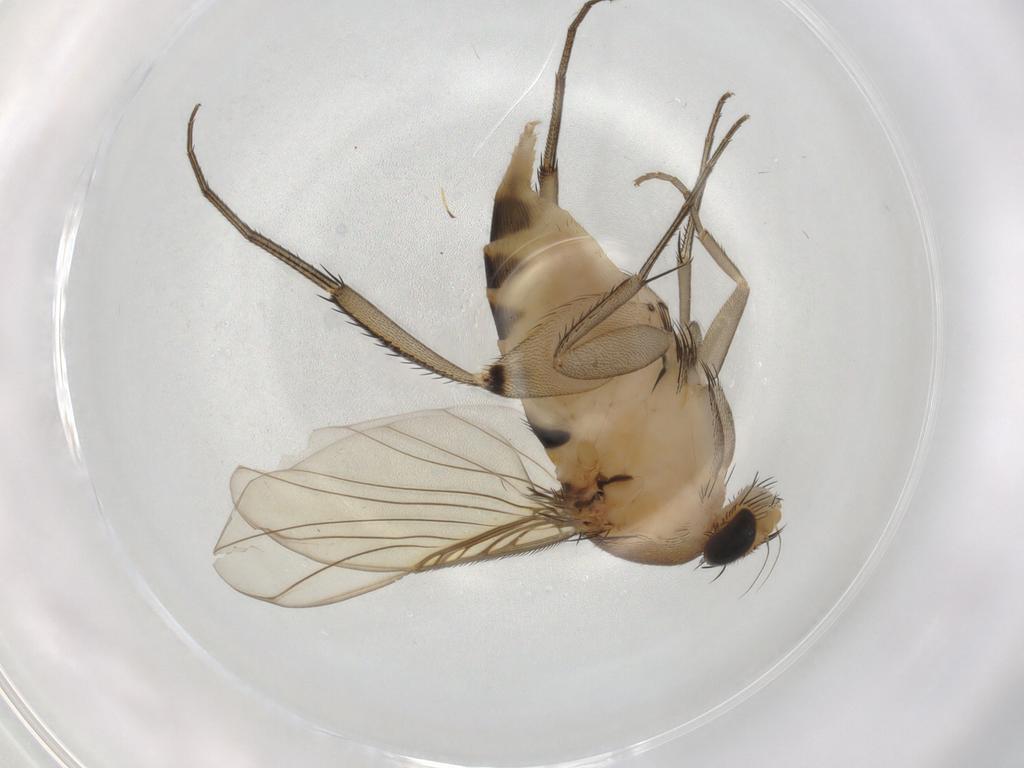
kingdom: Animalia
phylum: Arthropoda
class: Insecta
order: Diptera
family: Phoridae
